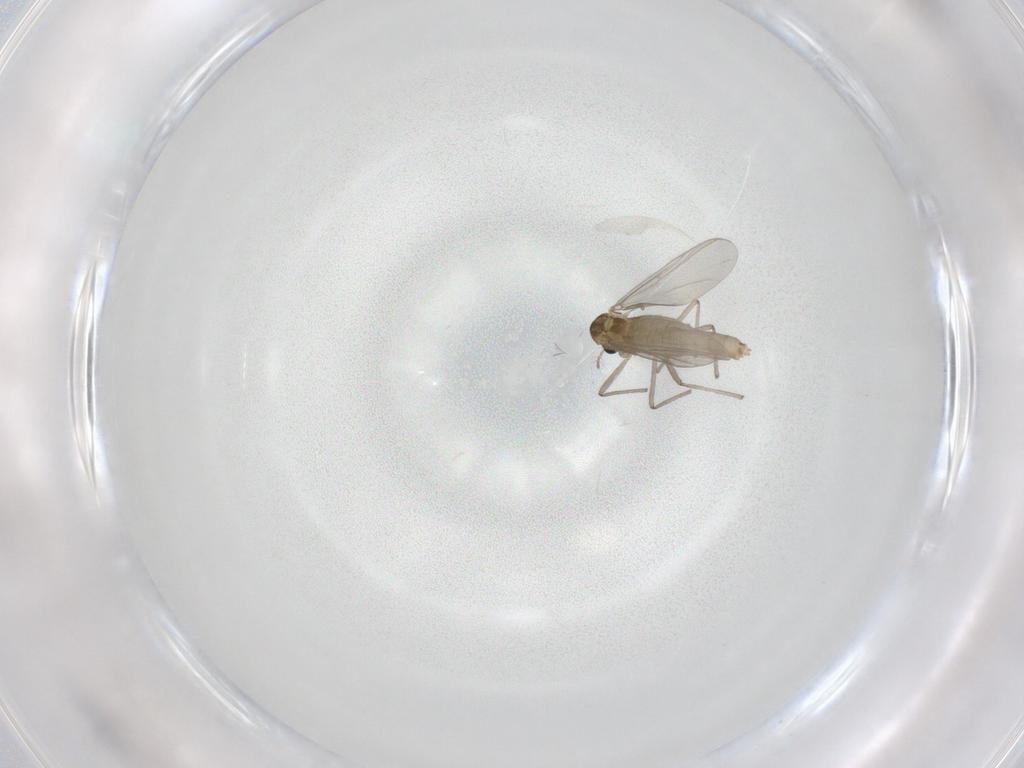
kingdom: Animalia
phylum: Arthropoda
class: Insecta
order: Diptera
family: Chironomidae
